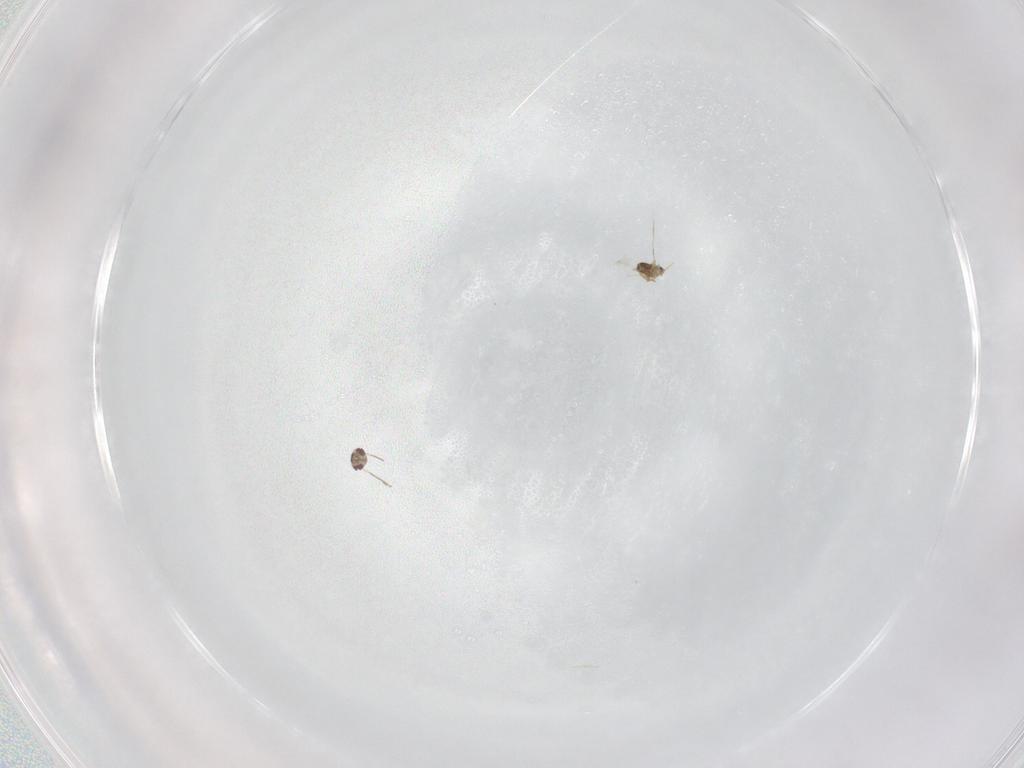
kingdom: Animalia
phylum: Arthropoda
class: Insecta
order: Hymenoptera
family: Mymaridae
